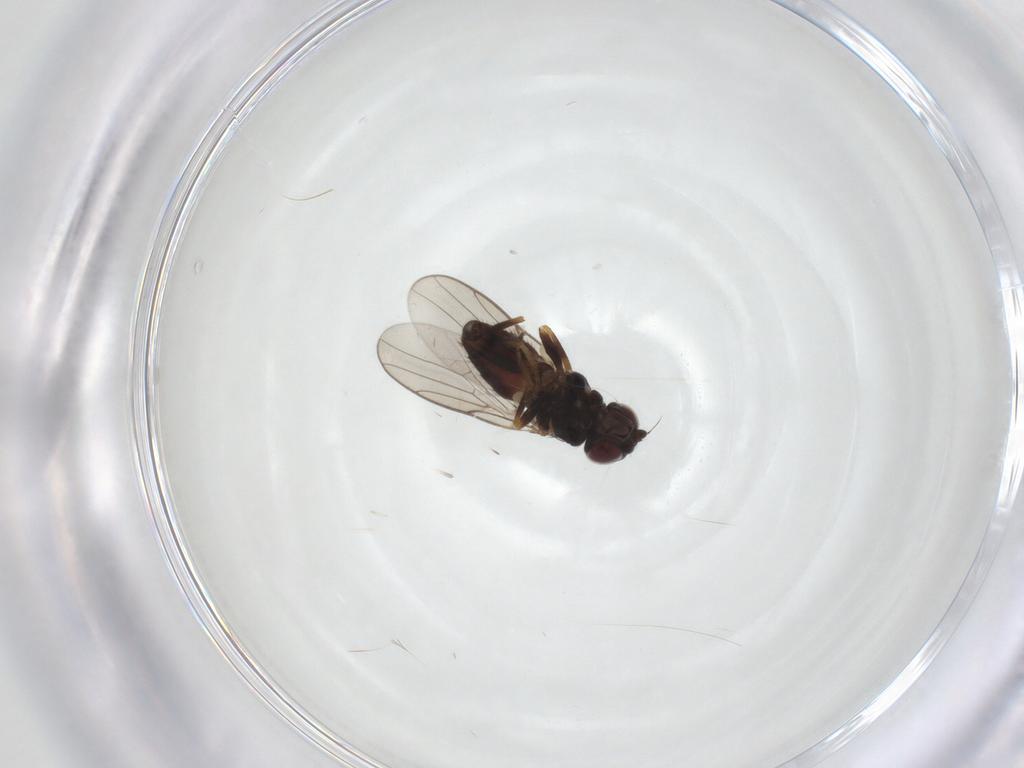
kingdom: Animalia
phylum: Arthropoda
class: Insecta
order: Diptera
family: Chloropidae
